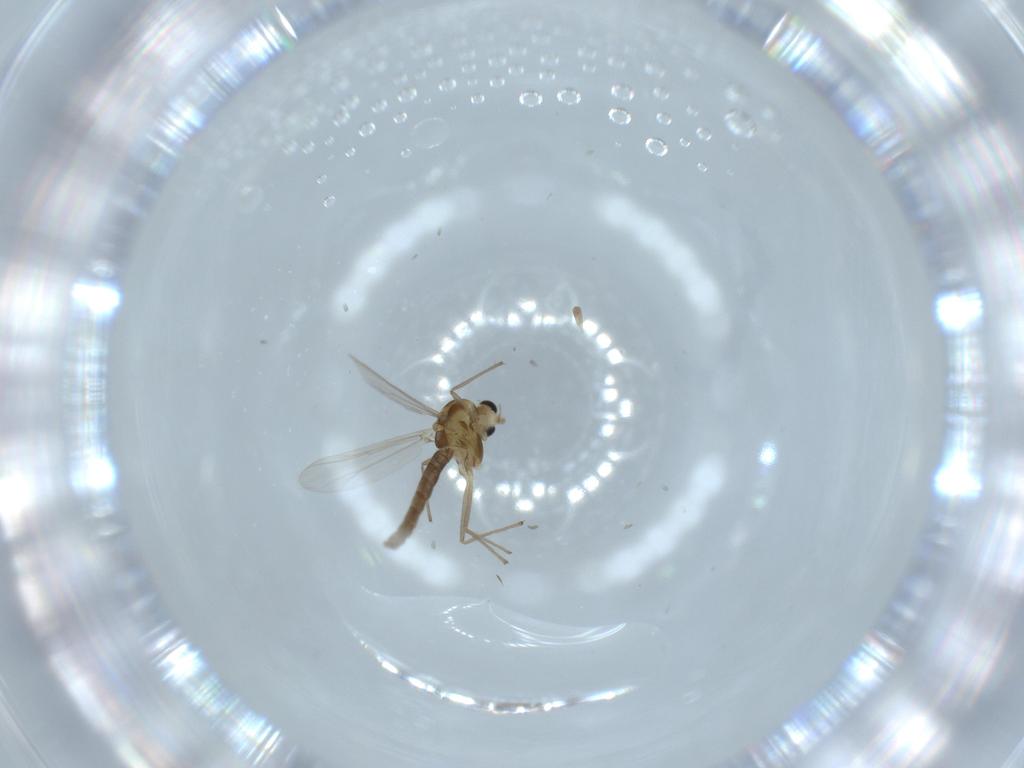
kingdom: Animalia
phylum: Arthropoda
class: Insecta
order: Diptera
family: Chironomidae
